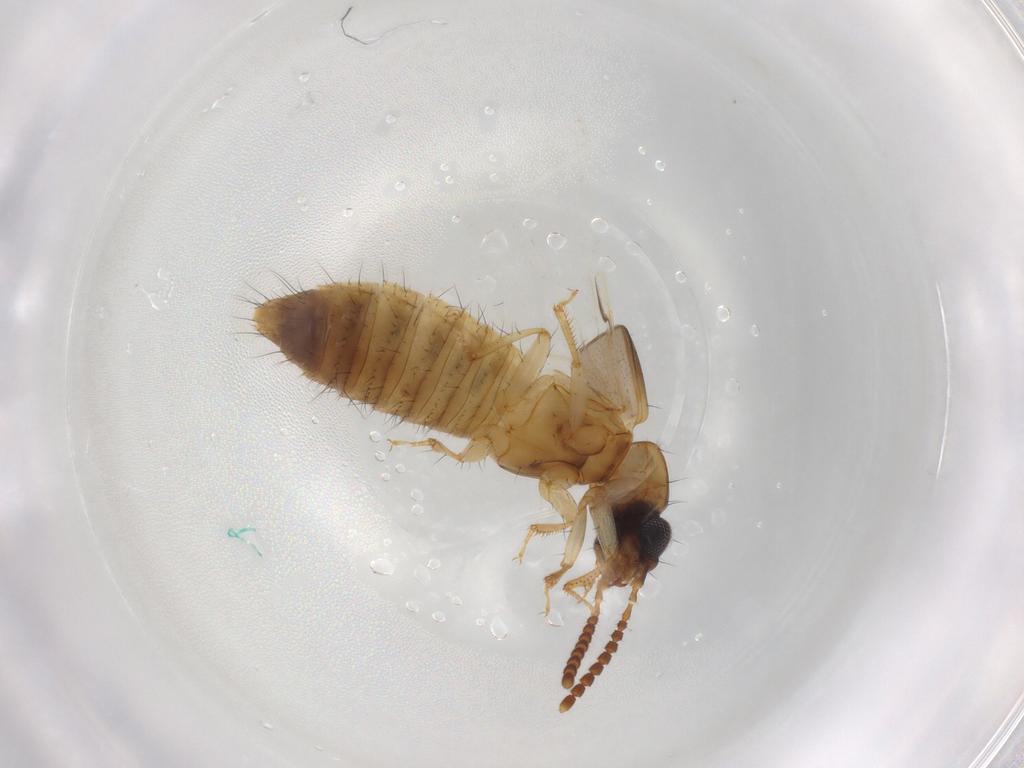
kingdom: Animalia
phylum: Arthropoda
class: Insecta
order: Coleoptera
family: Staphylinidae
